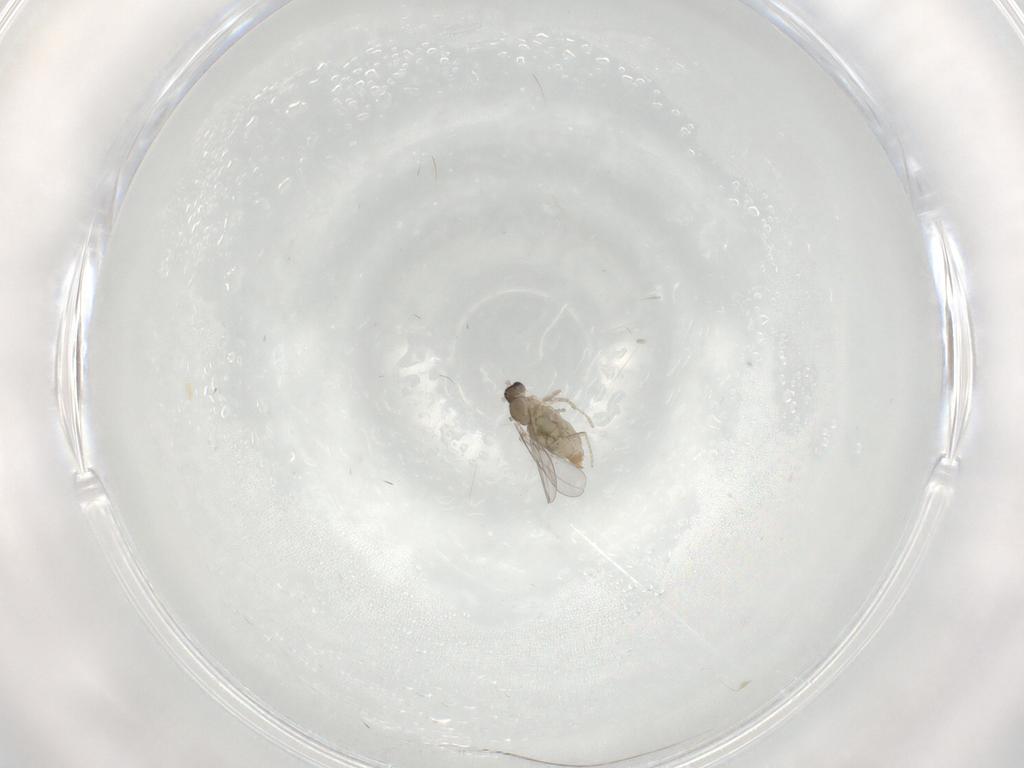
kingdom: Animalia
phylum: Arthropoda
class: Insecta
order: Diptera
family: Cecidomyiidae
